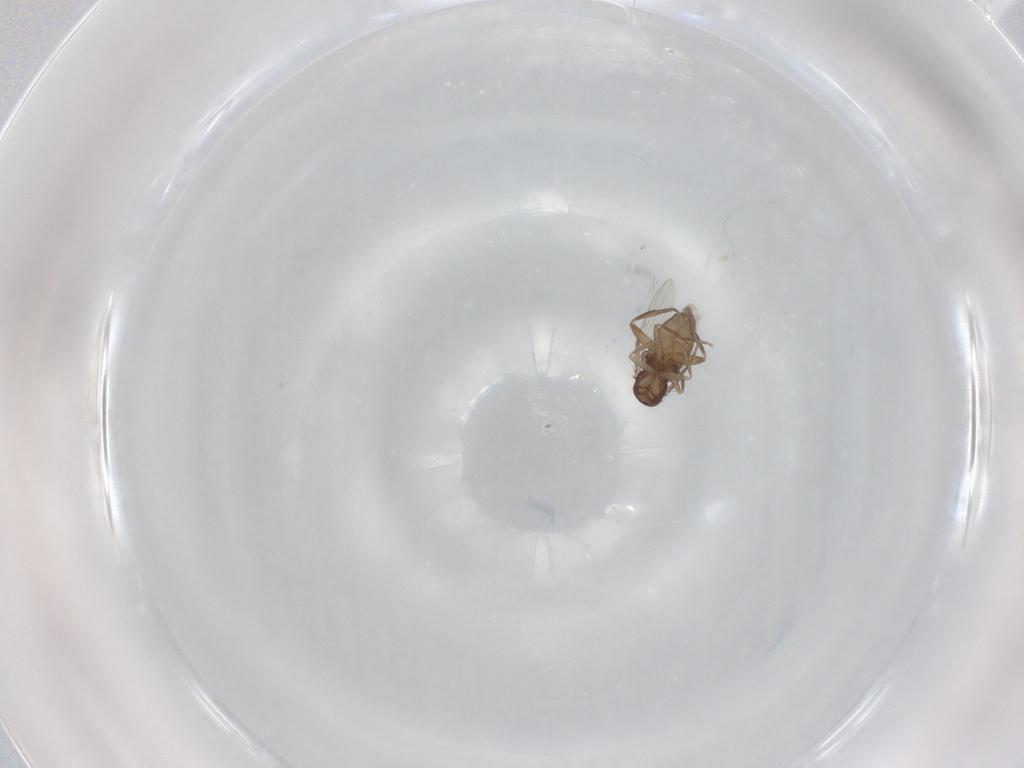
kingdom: Animalia
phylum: Arthropoda
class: Insecta
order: Diptera
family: Phoridae
